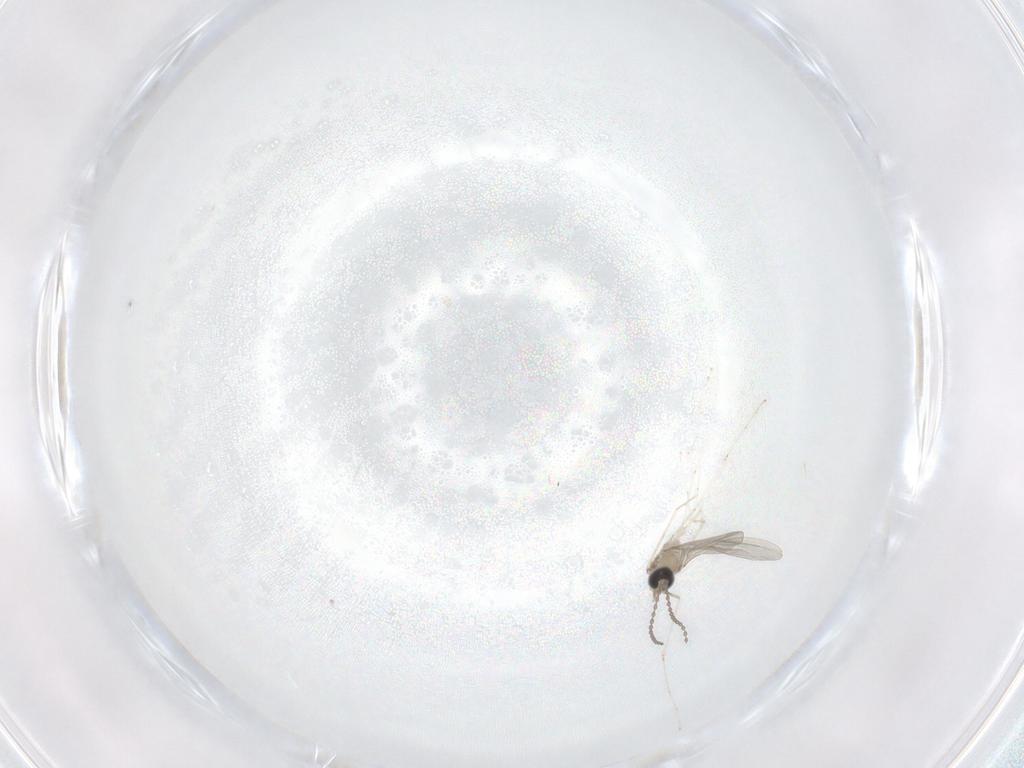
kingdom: Animalia
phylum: Arthropoda
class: Insecta
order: Diptera
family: Cecidomyiidae
